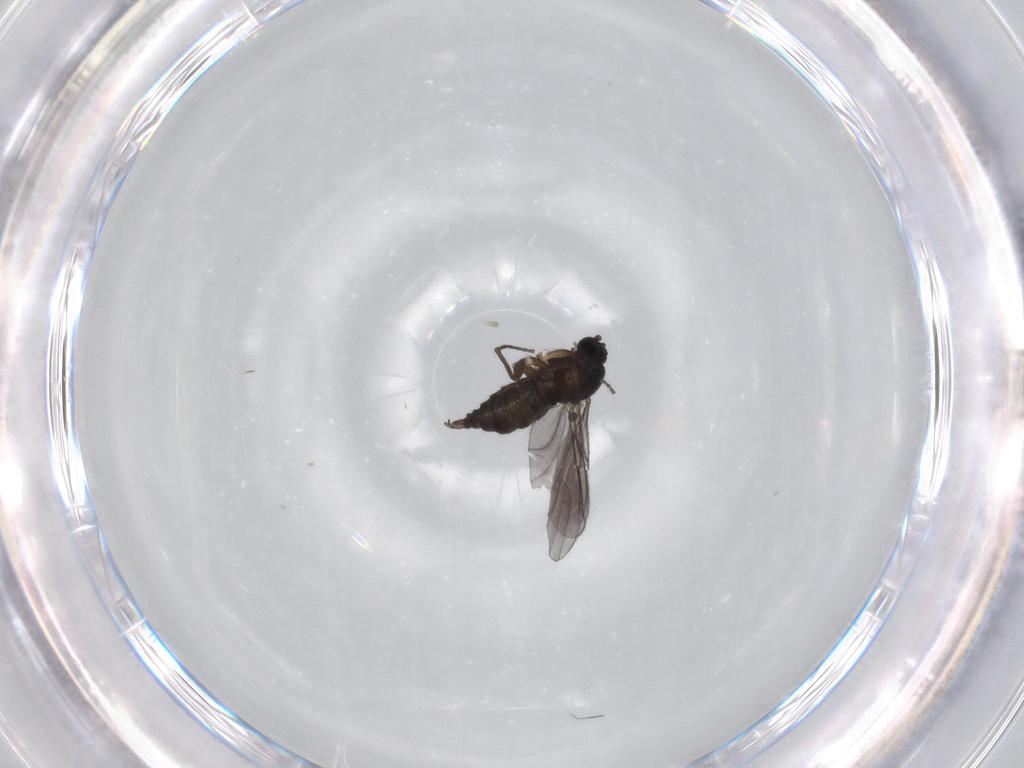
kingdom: Animalia
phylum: Arthropoda
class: Insecta
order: Diptera
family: Sciaridae
